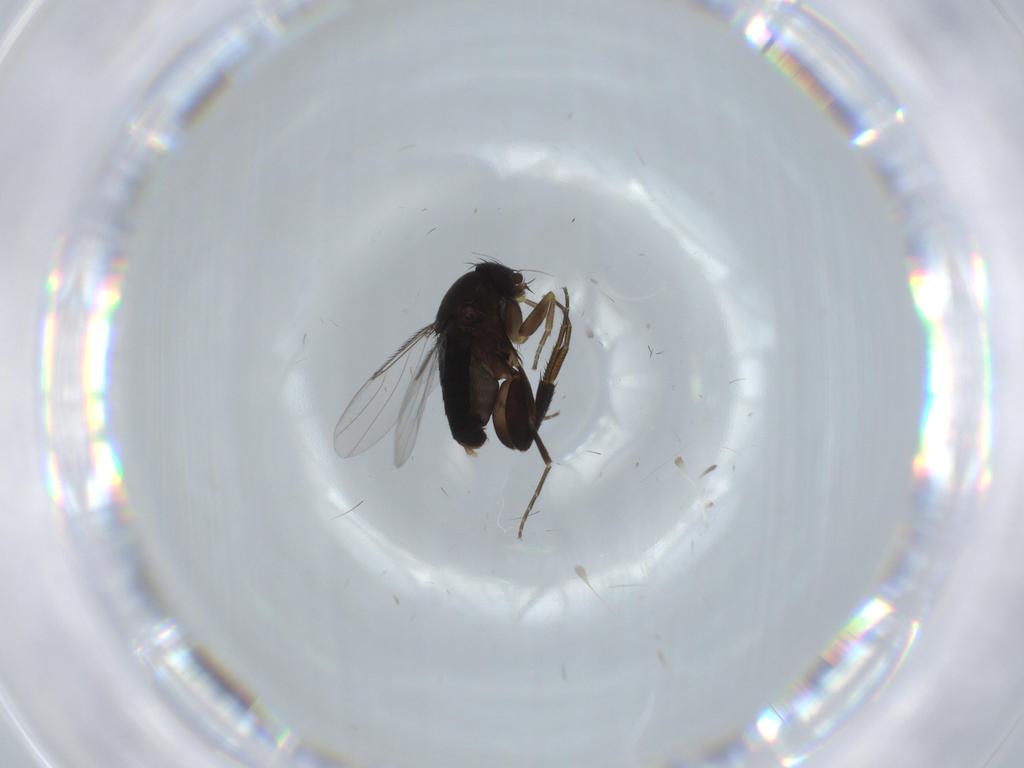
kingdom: Animalia
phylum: Arthropoda
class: Insecta
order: Diptera
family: Phoridae
